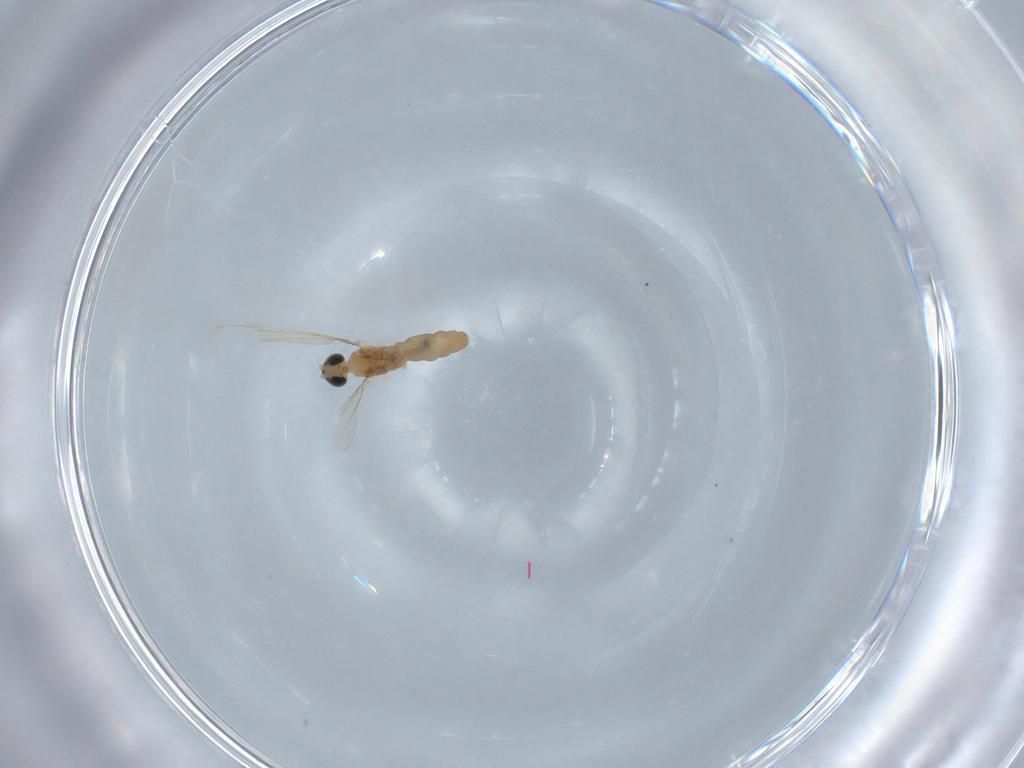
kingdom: Animalia
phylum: Arthropoda
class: Insecta
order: Diptera
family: Cecidomyiidae
